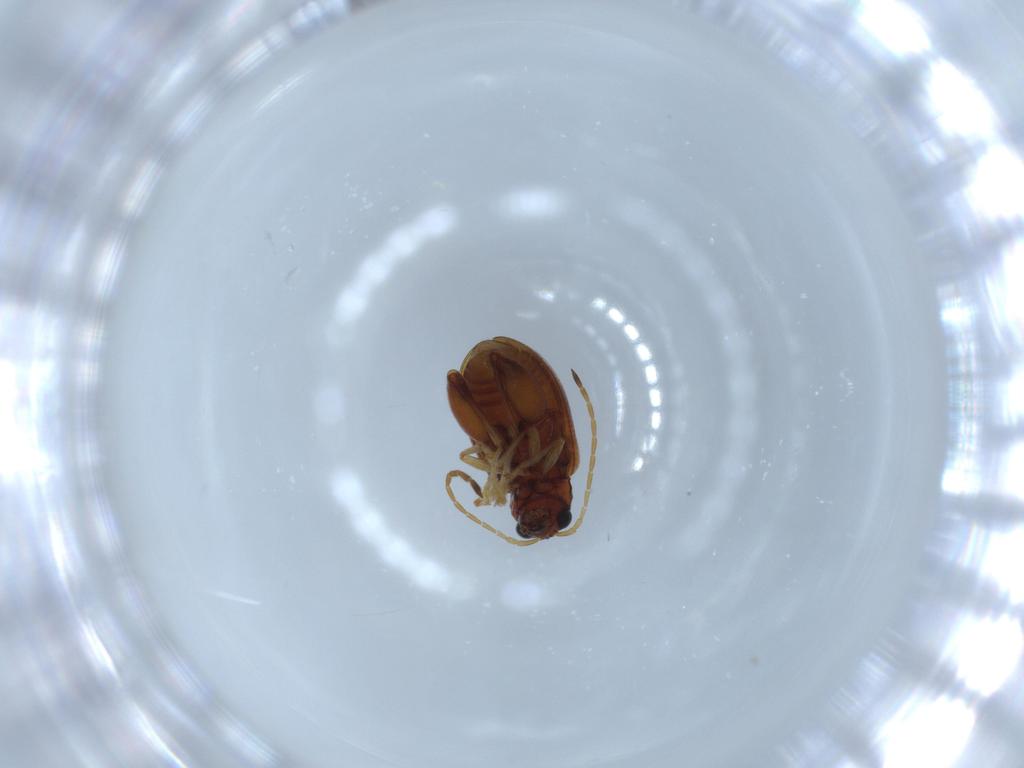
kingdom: Animalia
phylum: Arthropoda
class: Insecta
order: Coleoptera
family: Chrysomelidae
